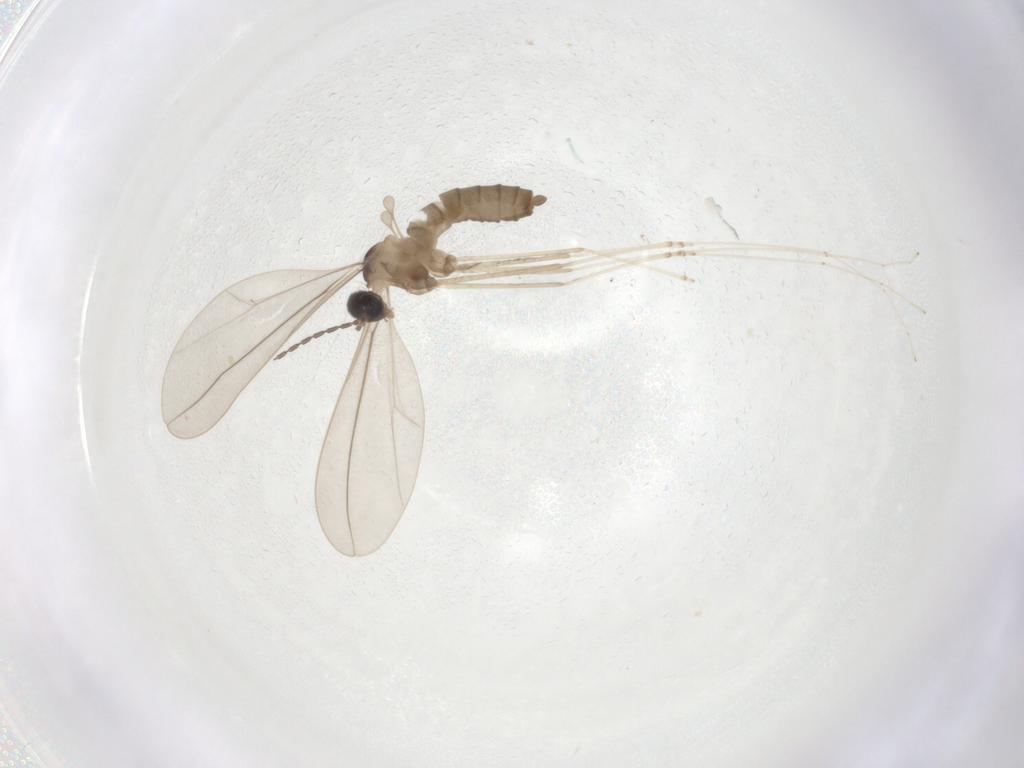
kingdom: Animalia
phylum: Arthropoda
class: Insecta
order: Diptera
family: Cecidomyiidae
